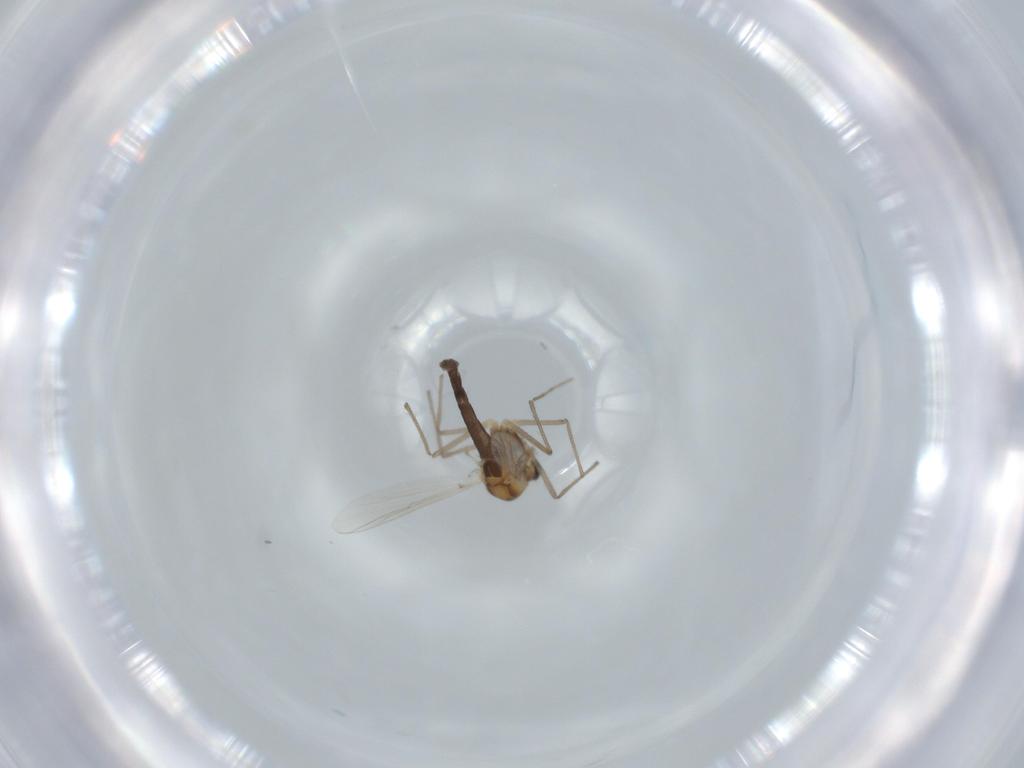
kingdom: Animalia
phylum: Arthropoda
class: Insecta
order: Diptera
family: Chironomidae
